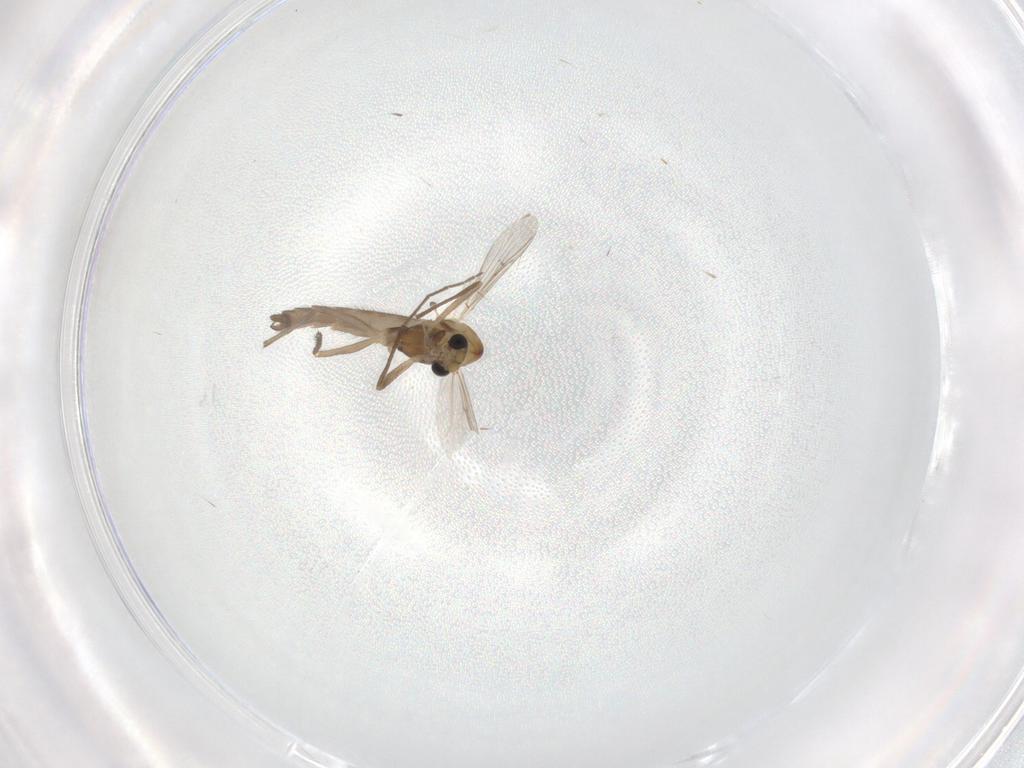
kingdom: Animalia
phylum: Arthropoda
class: Insecta
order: Diptera
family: Chironomidae
